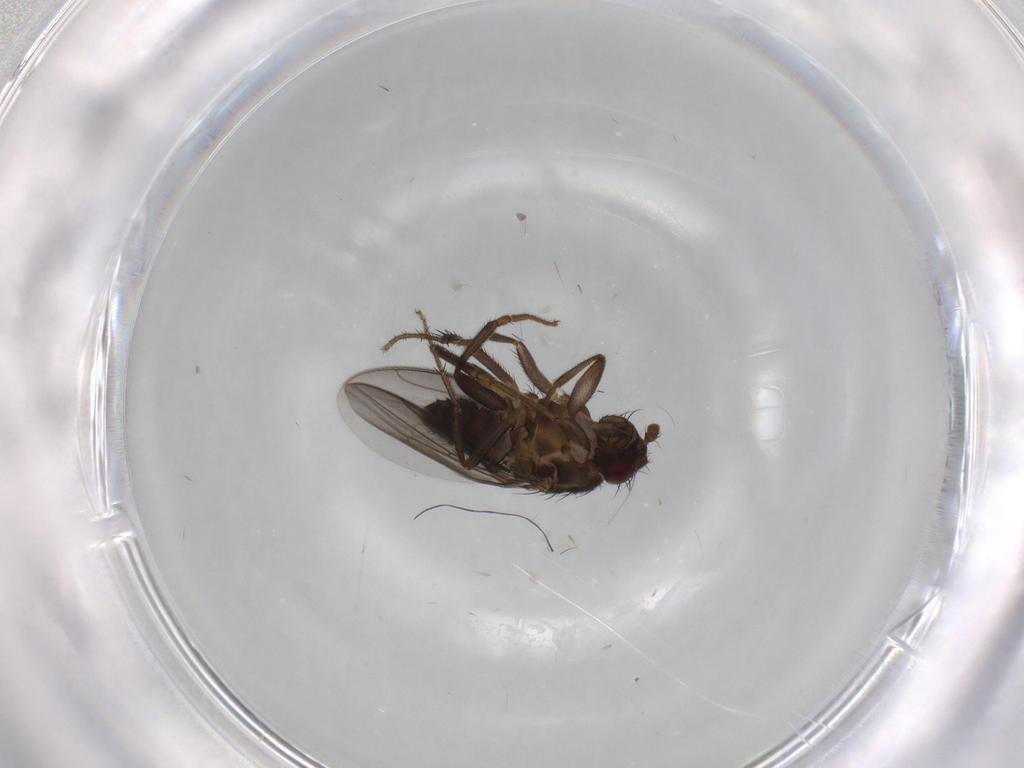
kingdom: Animalia
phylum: Arthropoda
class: Insecta
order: Diptera
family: Sphaeroceridae
